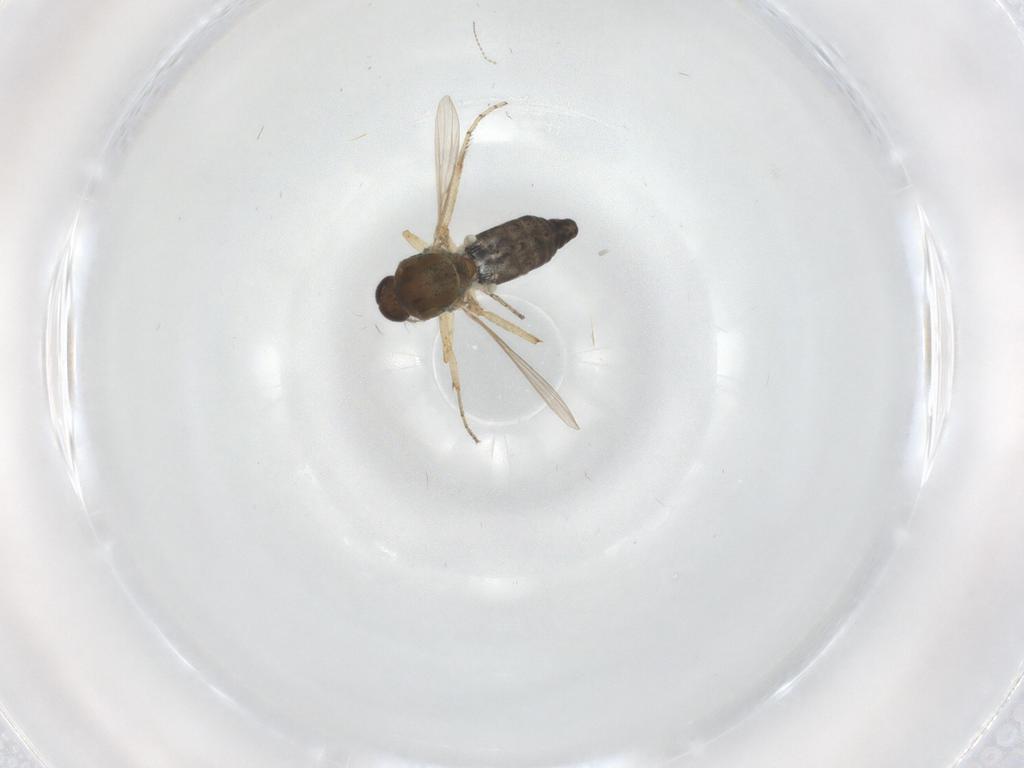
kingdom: Animalia
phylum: Arthropoda
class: Insecta
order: Diptera
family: Psychodidae
